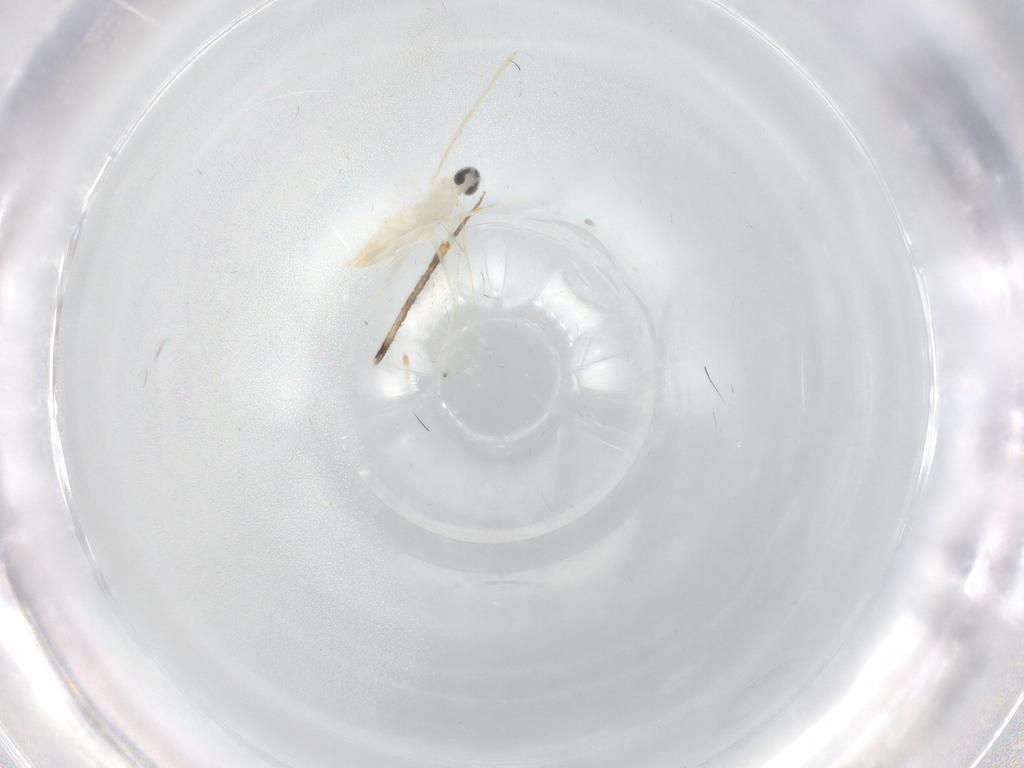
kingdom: Animalia
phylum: Arthropoda
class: Insecta
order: Diptera
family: Cecidomyiidae
